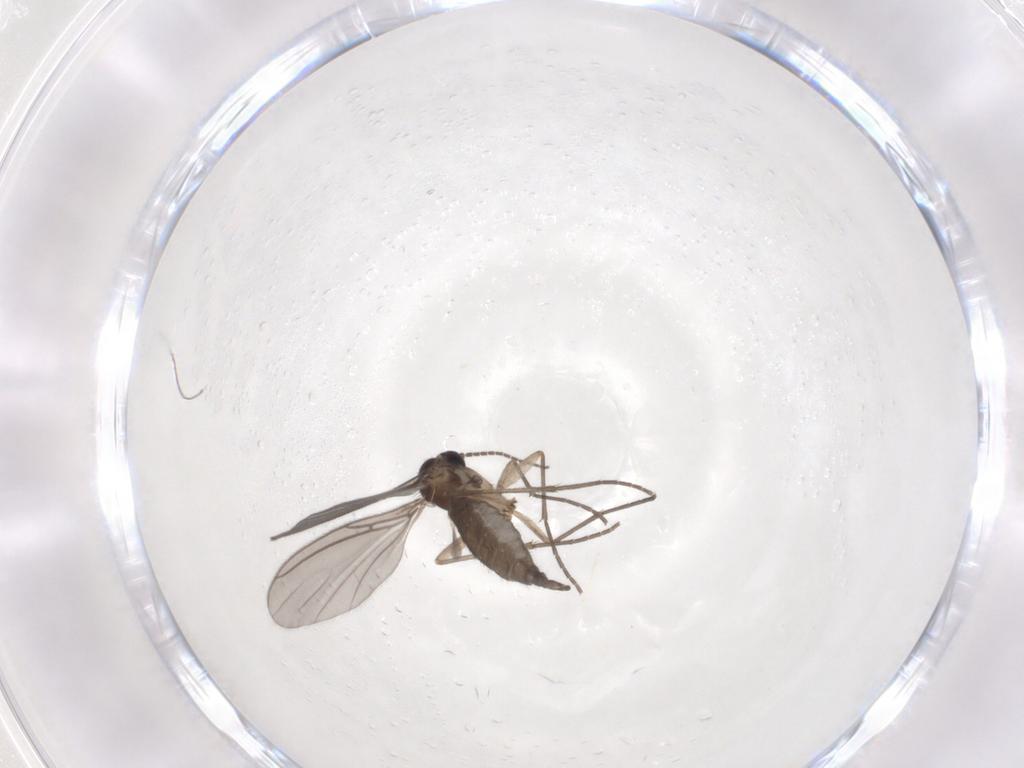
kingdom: Animalia
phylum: Arthropoda
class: Insecta
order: Diptera
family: Sciaridae
